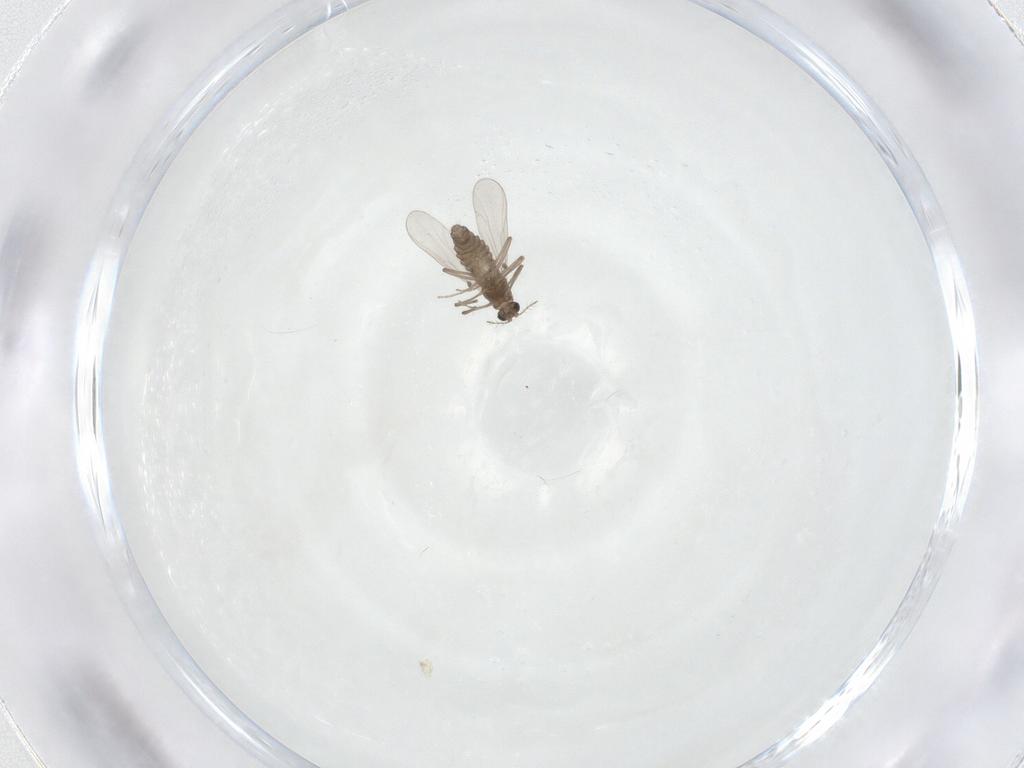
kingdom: Animalia
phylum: Arthropoda
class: Insecta
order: Diptera
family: Chironomidae
